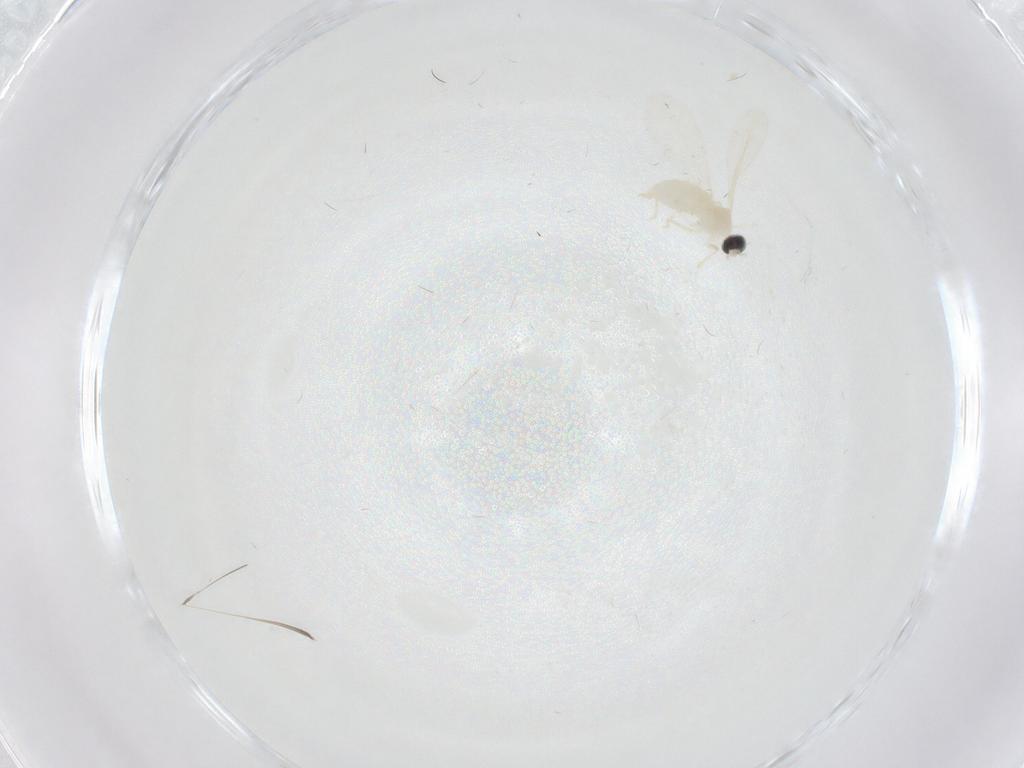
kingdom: Animalia
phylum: Arthropoda
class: Insecta
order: Diptera
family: Cecidomyiidae
